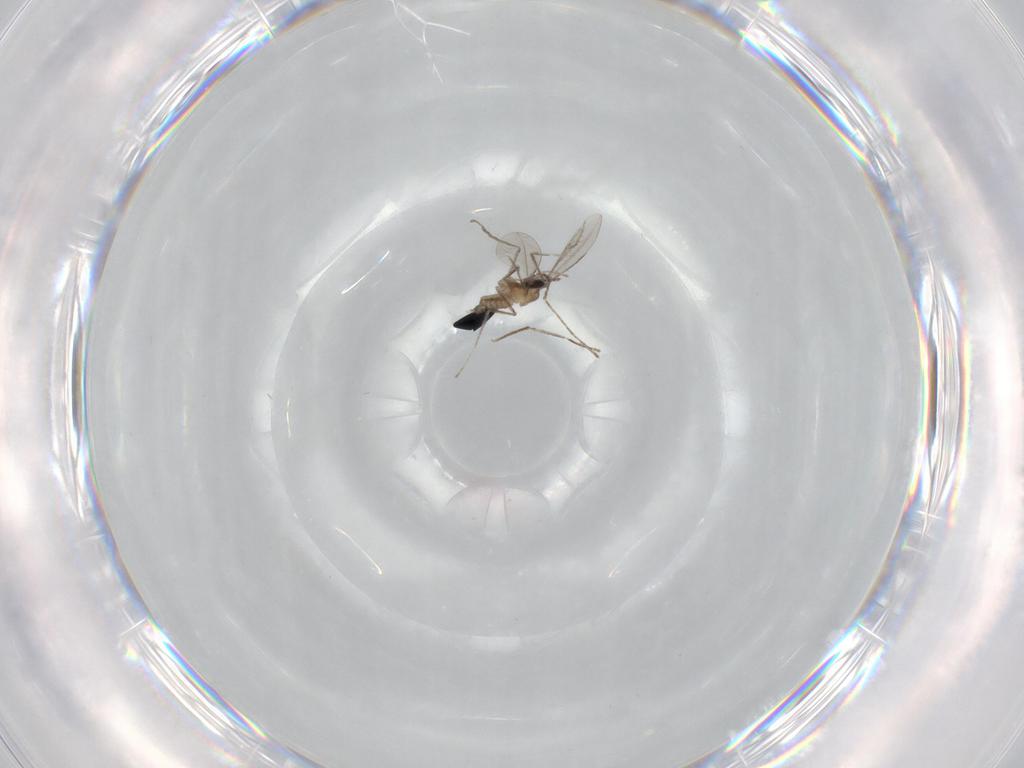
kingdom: Animalia
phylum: Arthropoda
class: Insecta
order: Diptera
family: Limoniidae
